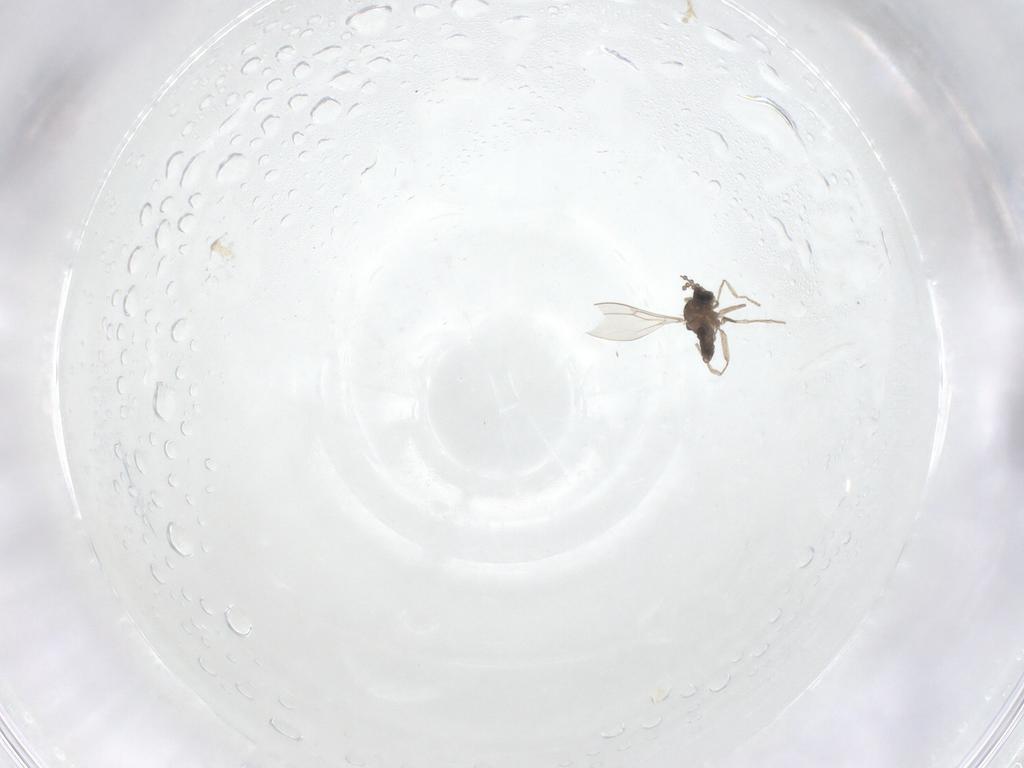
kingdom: Animalia
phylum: Arthropoda
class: Insecta
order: Diptera
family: Cecidomyiidae
